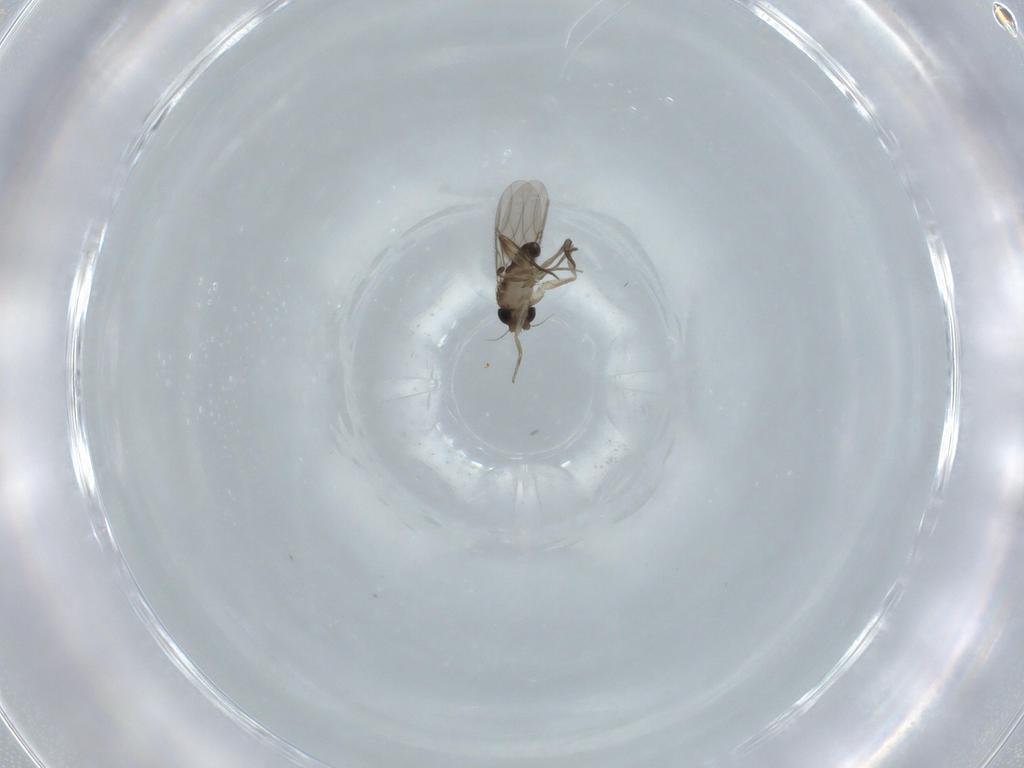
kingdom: Animalia
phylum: Arthropoda
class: Insecta
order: Diptera
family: Phoridae
